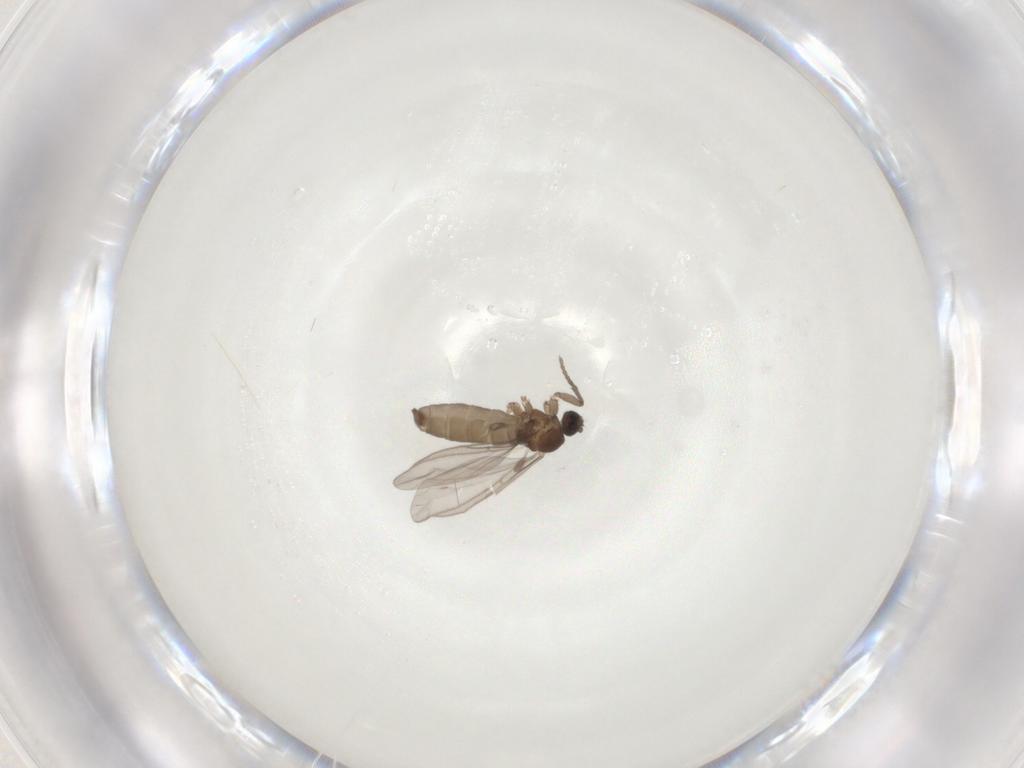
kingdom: Animalia
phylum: Arthropoda
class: Insecta
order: Diptera
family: Sciaridae
